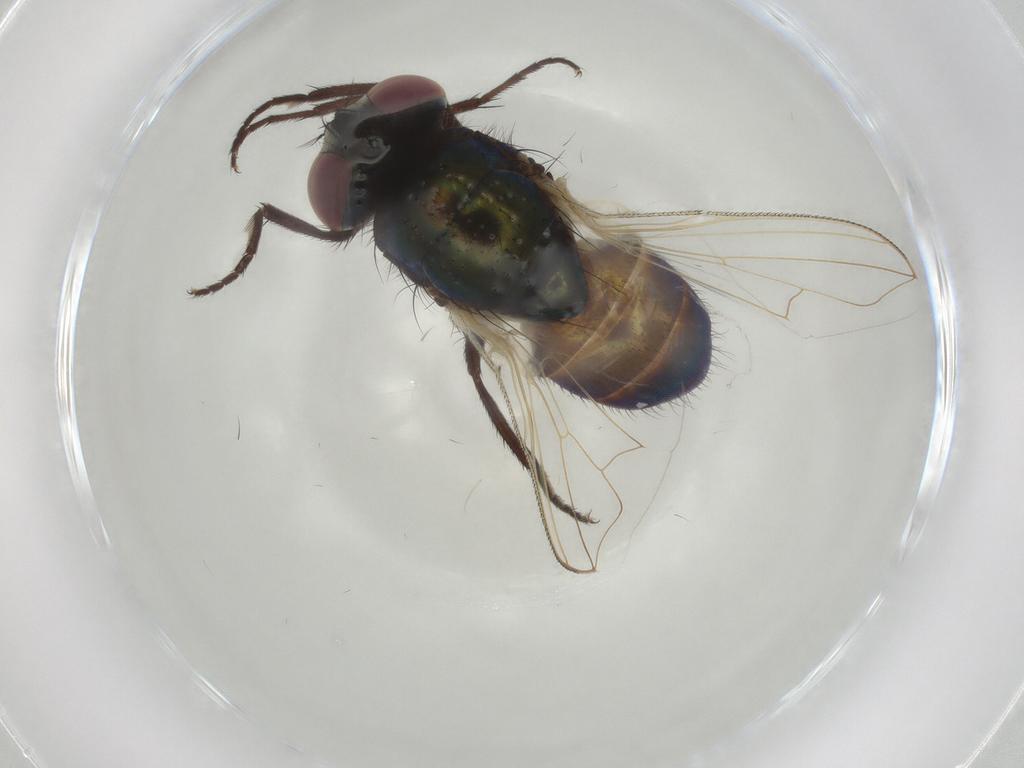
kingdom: Animalia
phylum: Arthropoda
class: Insecta
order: Diptera
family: Muscidae
